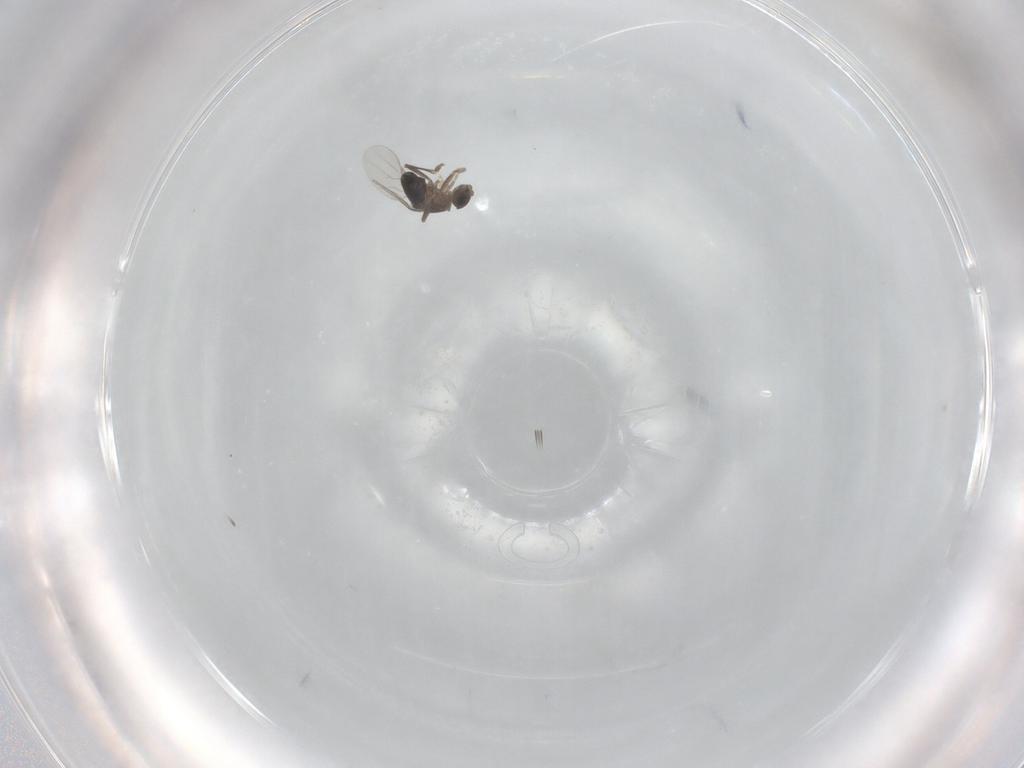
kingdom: Animalia
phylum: Arthropoda
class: Insecta
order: Diptera
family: Phoridae
